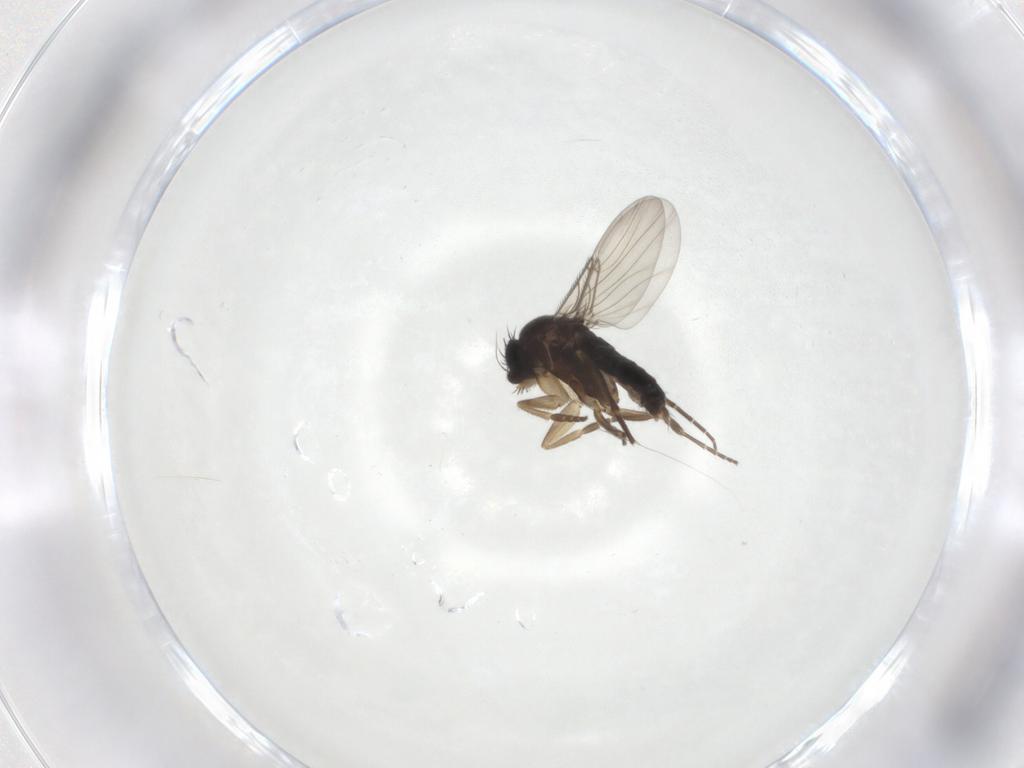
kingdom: Animalia
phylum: Arthropoda
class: Insecta
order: Diptera
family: Phoridae
